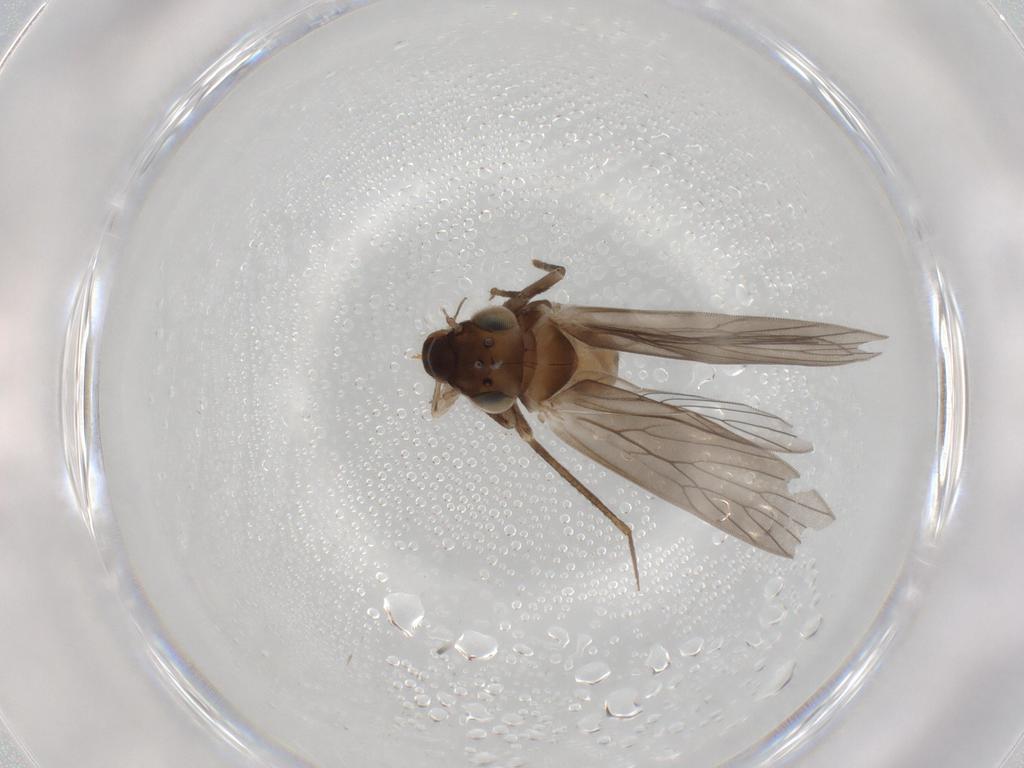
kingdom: Animalia
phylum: Arthropoda
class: Insecta
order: Psocodea
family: Lepidopsocidae
